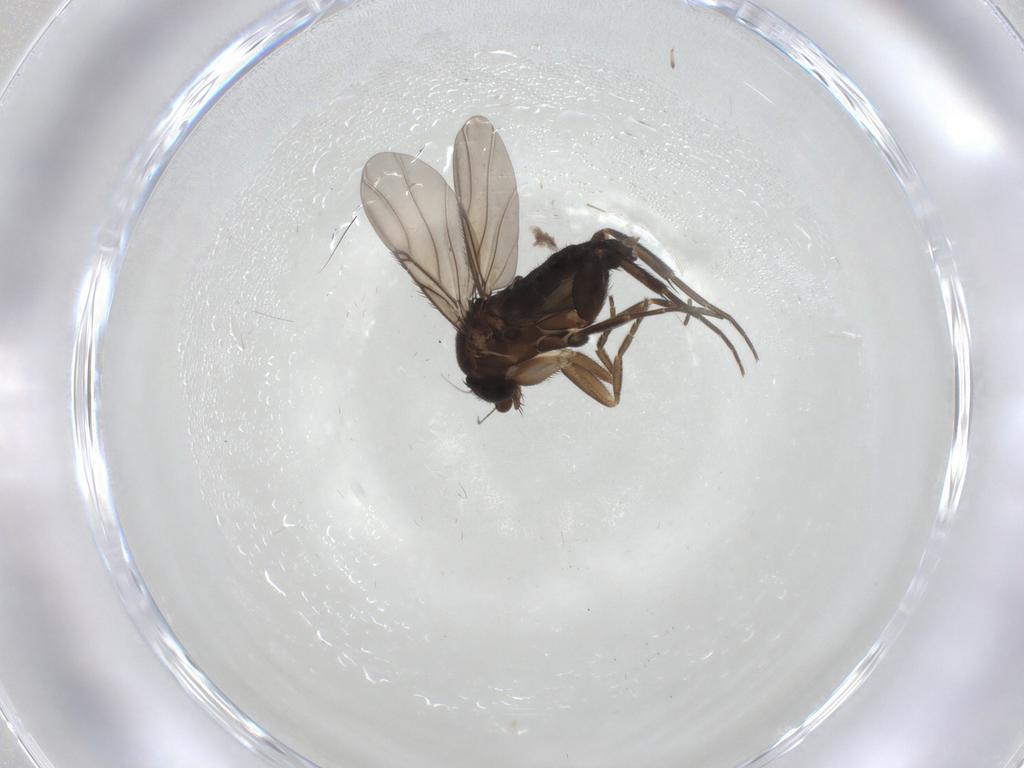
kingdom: Animalia
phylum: Arthropoda
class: Insecta
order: Diptera
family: Phoridae
